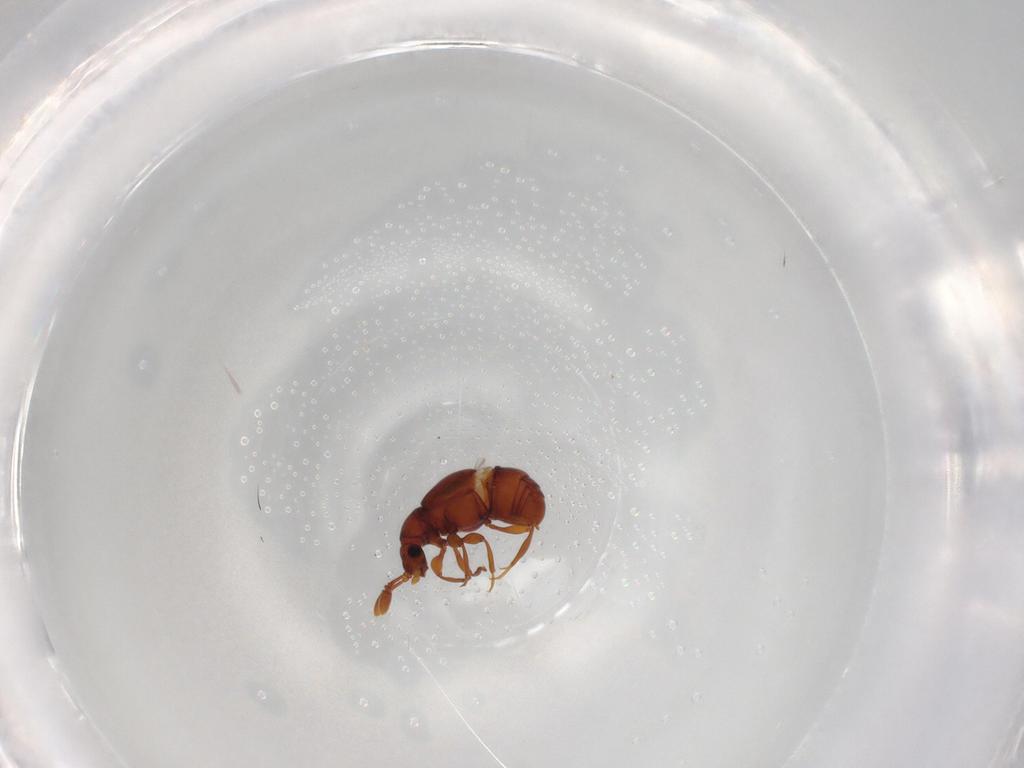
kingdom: Animalia
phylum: Arthropoda
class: Insecta
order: Coleoptera
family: Staphylinidae
